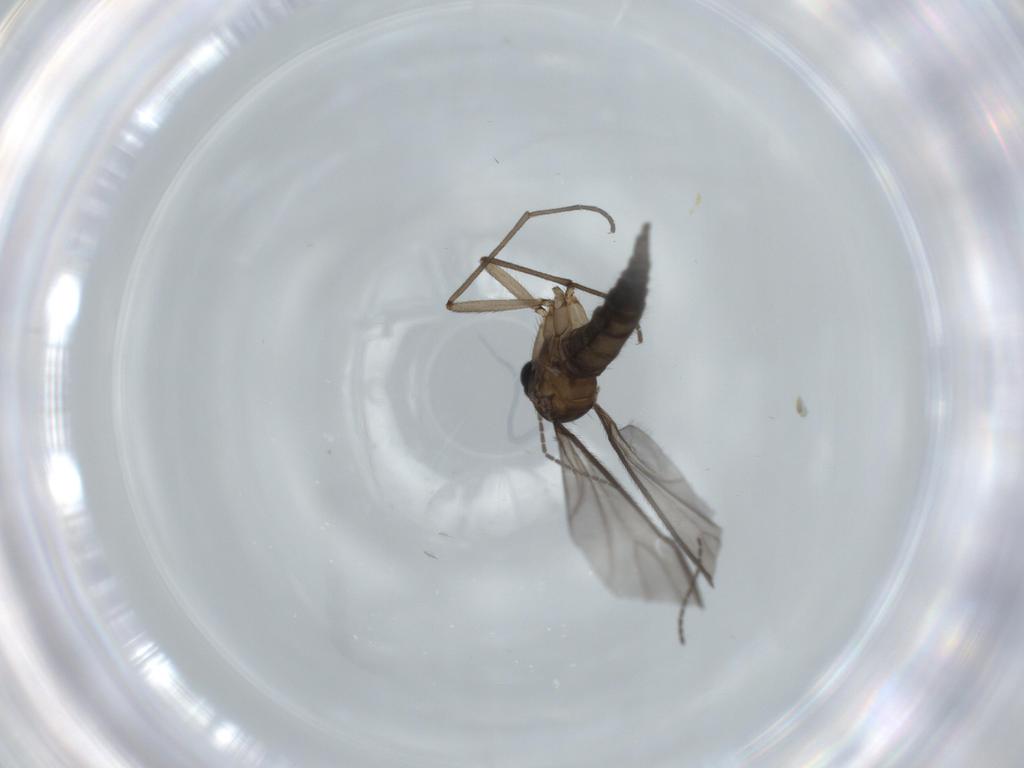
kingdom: Animalia
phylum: Arthropoda
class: Insecta
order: Diptera
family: Sciaridae
